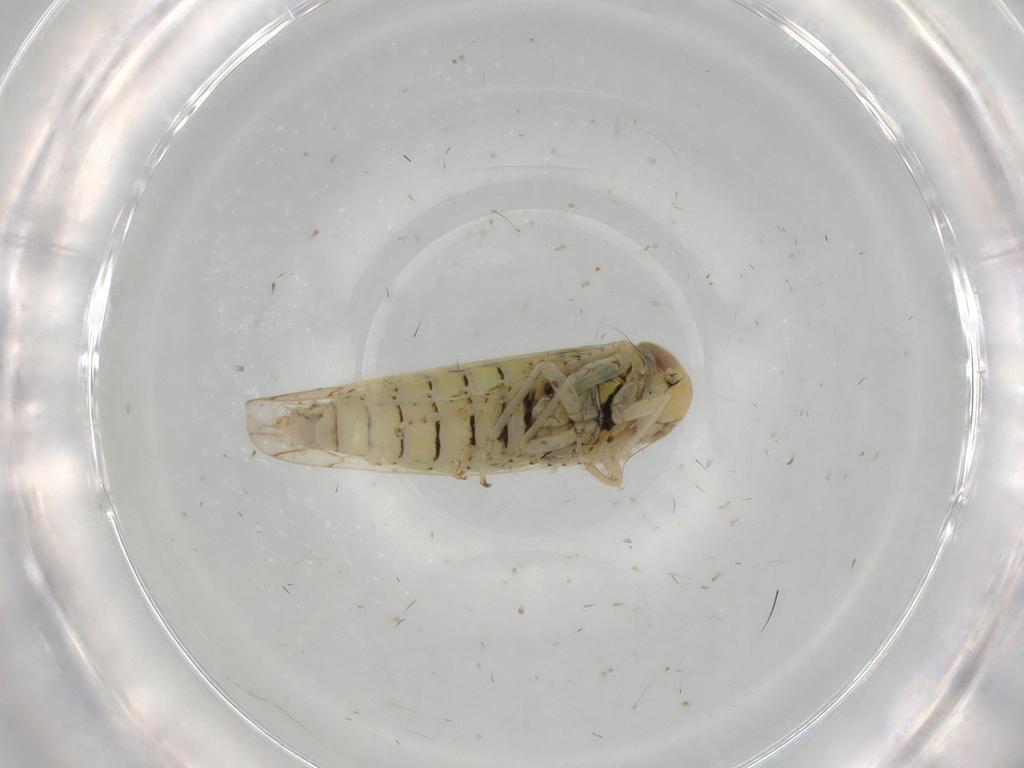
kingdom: Animalia
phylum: Arthropoda
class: Insecta
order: Hemiptera
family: Cicadellidae
